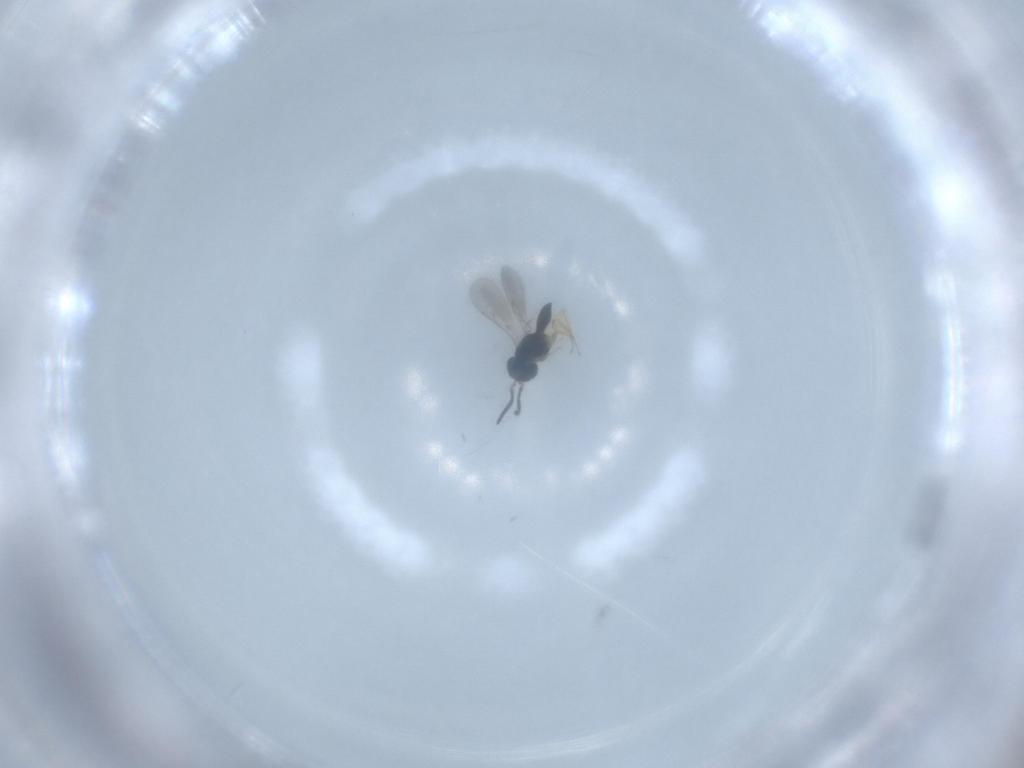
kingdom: Animalia
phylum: Arthropoda
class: Insecta
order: Hymenoptera
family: Scelionidae
